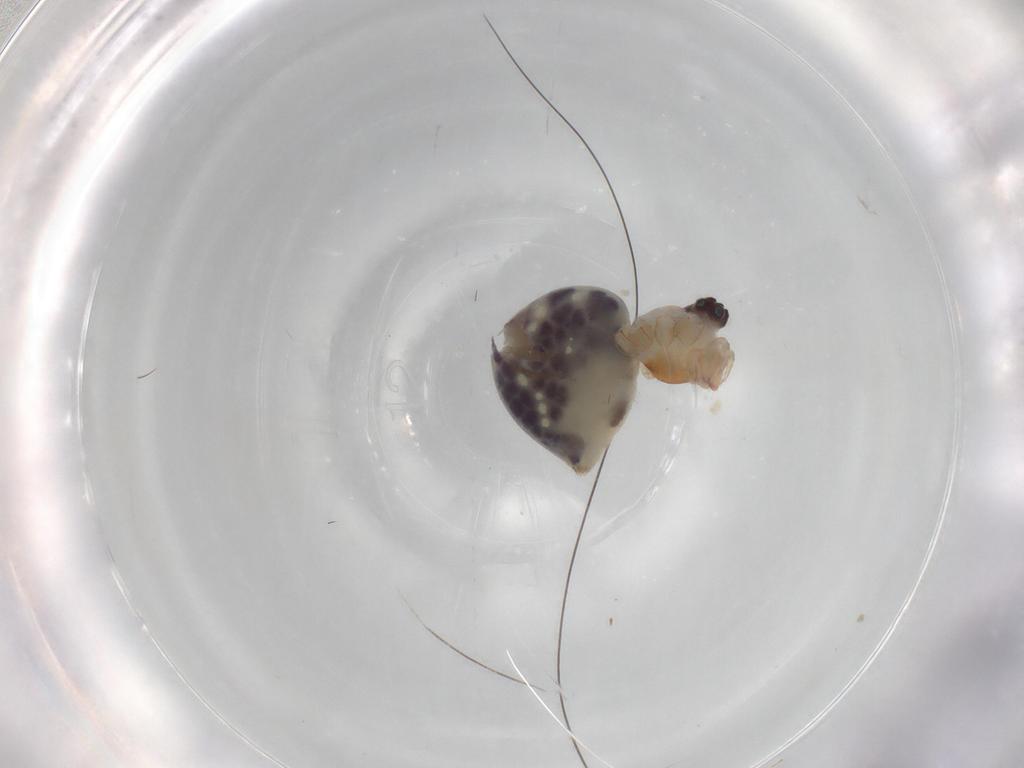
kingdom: Animalia
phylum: Arthropoda
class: Arachnida
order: Araneae
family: Pholcidae
